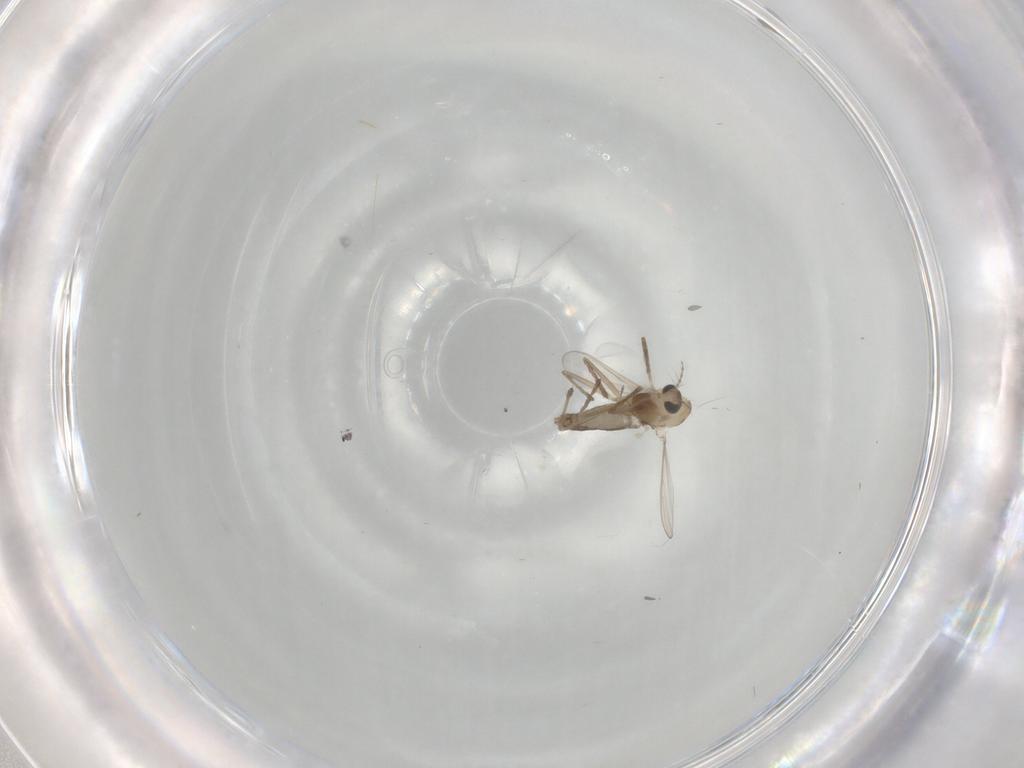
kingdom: Animalia
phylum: Arthropoda
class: Insecta
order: Diptera
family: Chironomidae
